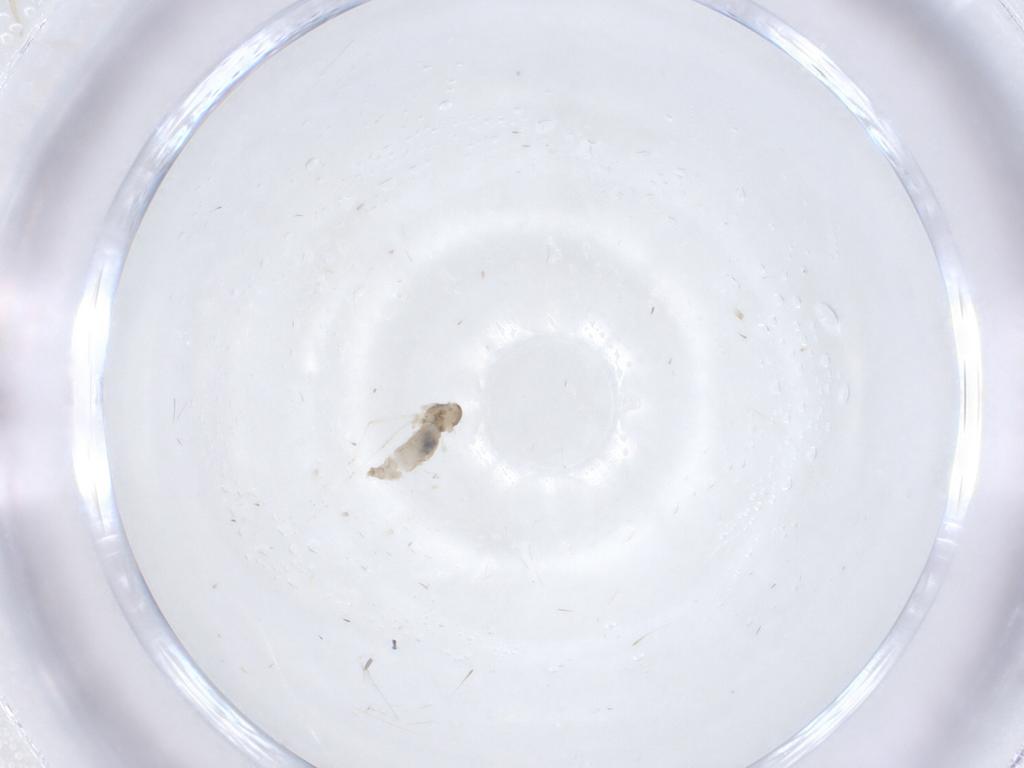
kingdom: Animalia
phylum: Arthropoda
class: Insecta
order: Diptera
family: Cecidomyiidae
